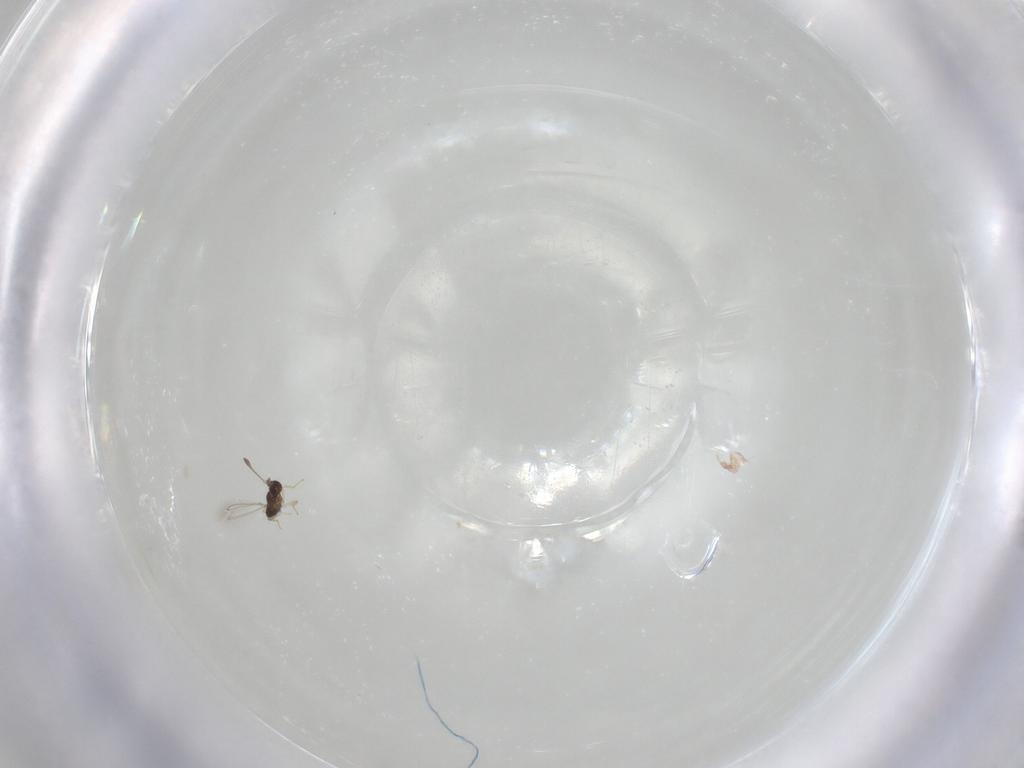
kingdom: Animalia
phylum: Arthropoda
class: Insecta
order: Hymenoptera
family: Mymaridae
